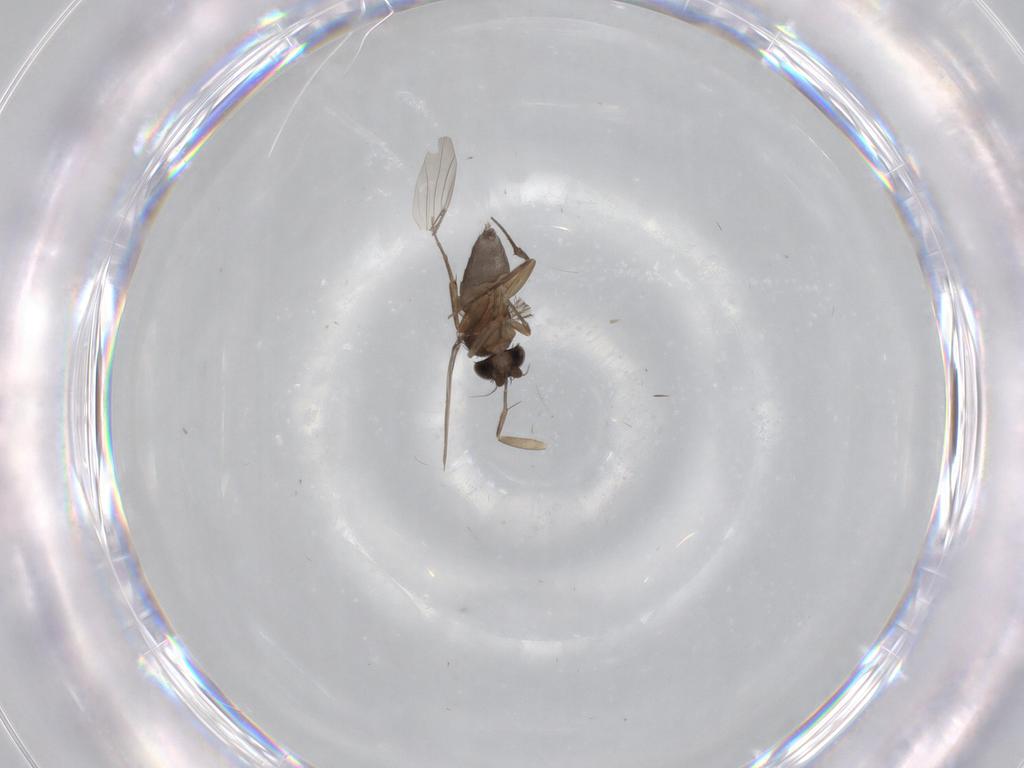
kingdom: Animalia
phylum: Arthropoda
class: Insecta
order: Diptera
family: Phoridae
